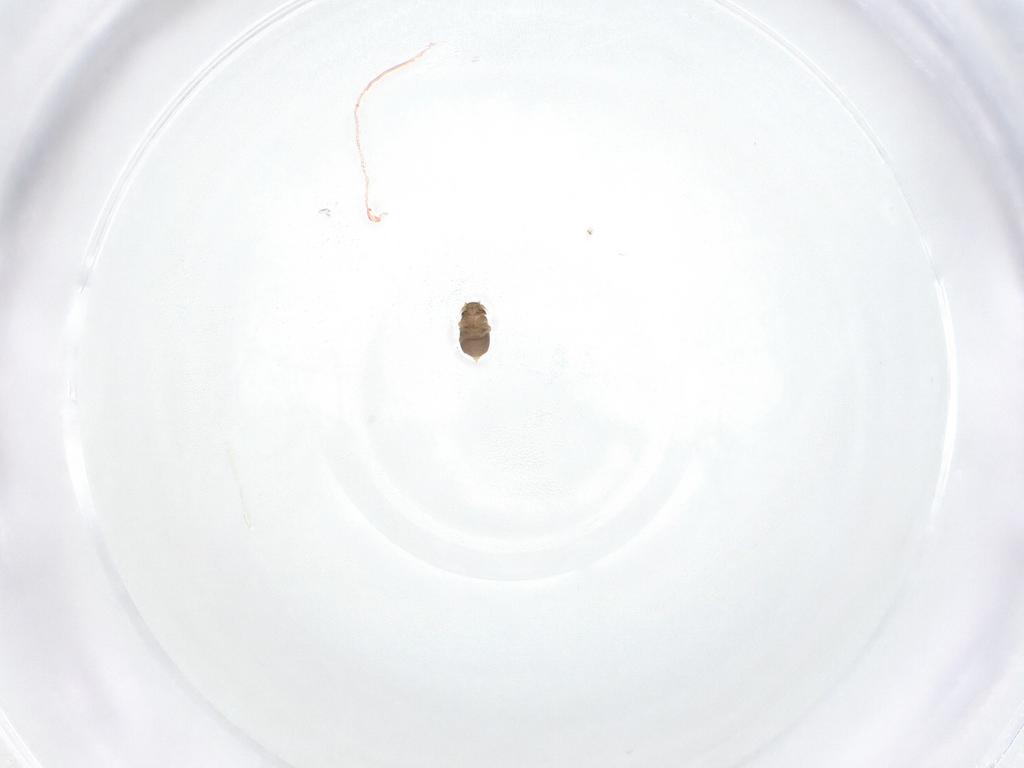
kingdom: Animalia
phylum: Arthropoda
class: Insecta
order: Diptera
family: Phoridae
